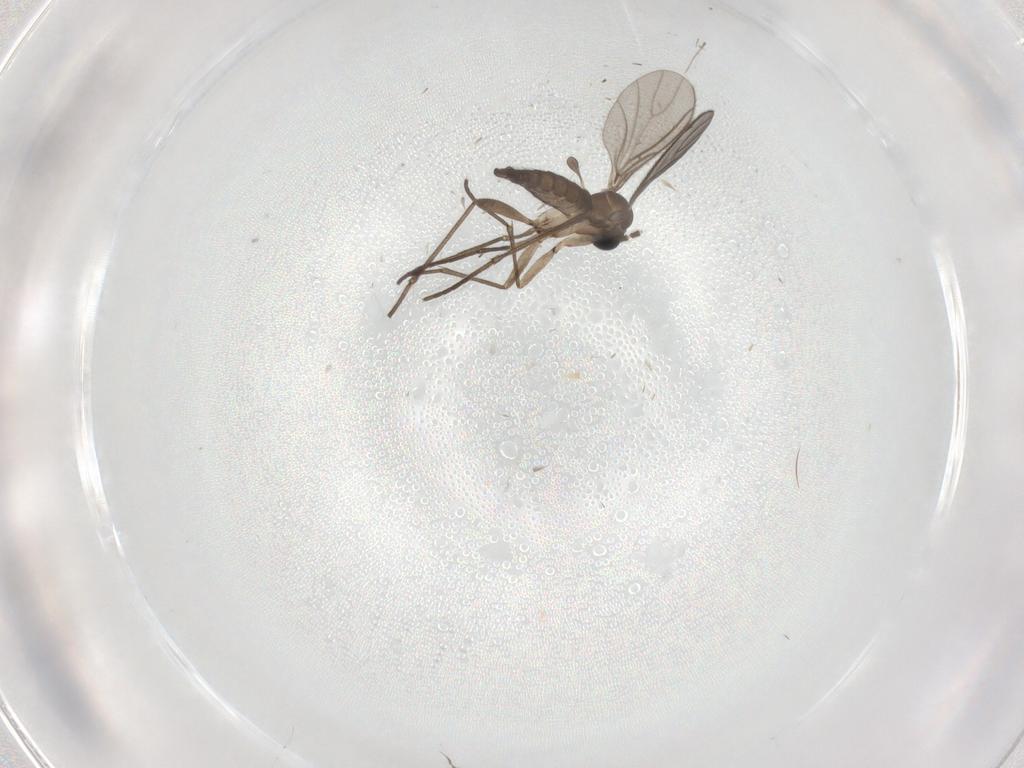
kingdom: Animalia
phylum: Arthropoda
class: Insecta
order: Diptera
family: Cecidomyiidae
